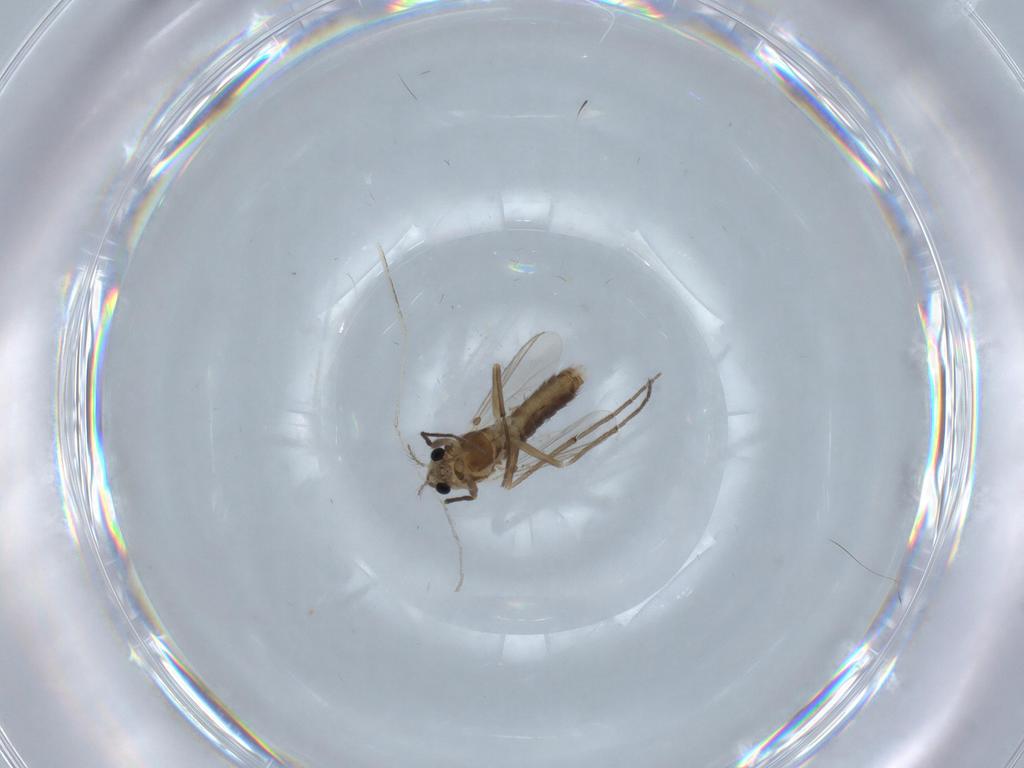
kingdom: Animalia
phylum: Arthropoda
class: Insecta
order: Diptera
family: Chironomidae
